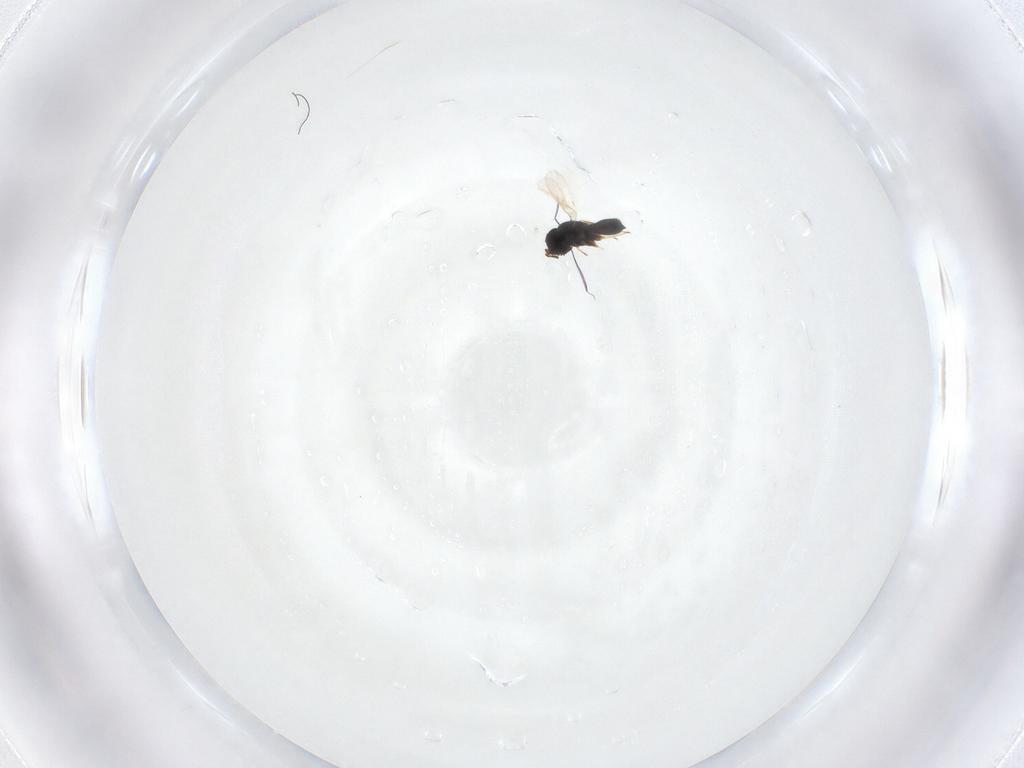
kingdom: Animalia
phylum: Arthropoda
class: Insecta
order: Hymenoptera
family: Scelionidae
